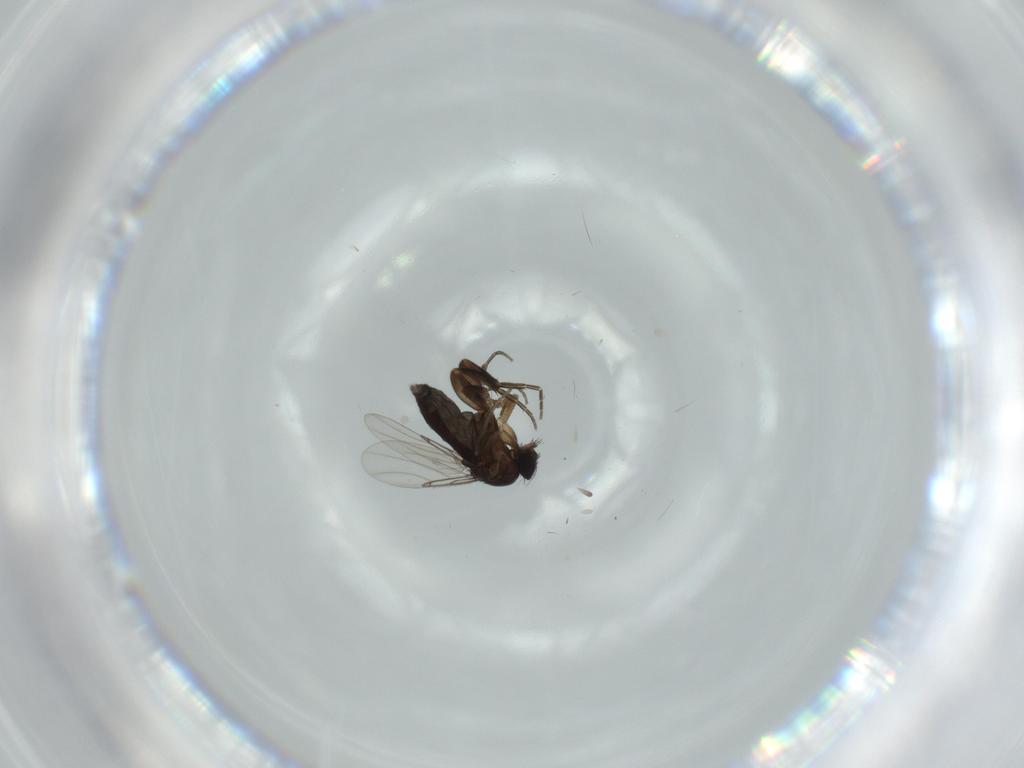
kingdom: Animalia
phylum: Arthropoda
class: Insecta
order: Diptera
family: Phoridae
